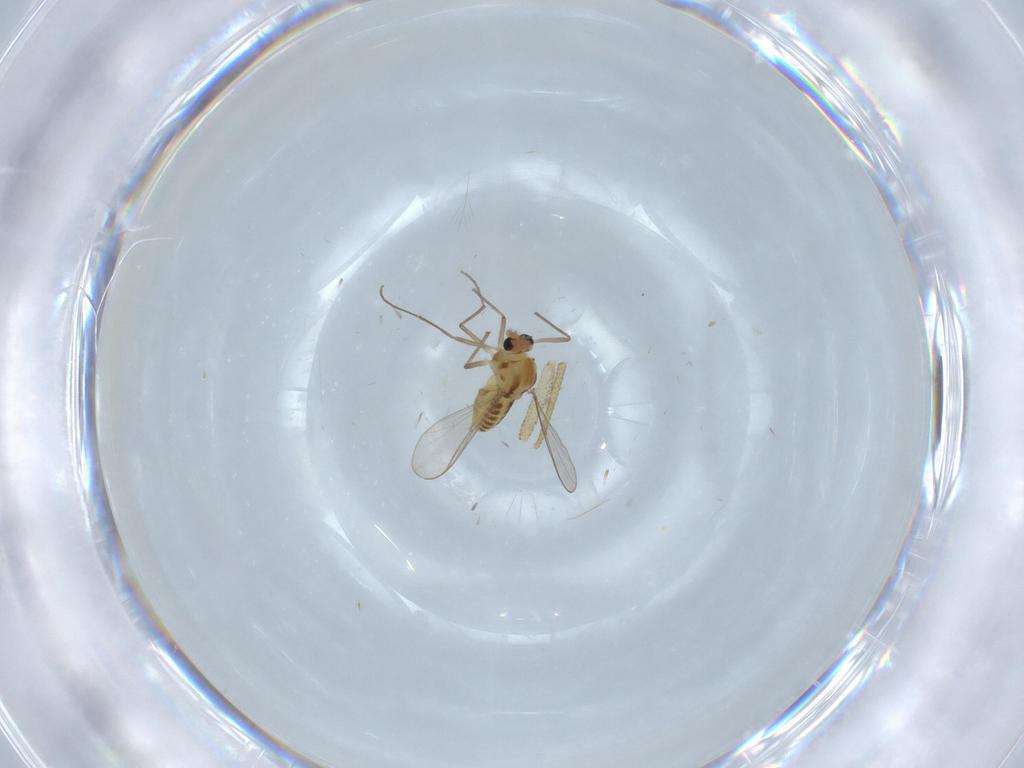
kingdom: Animalia
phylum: Arthropoda
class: Insecta
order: Diptera
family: Chironomidae
